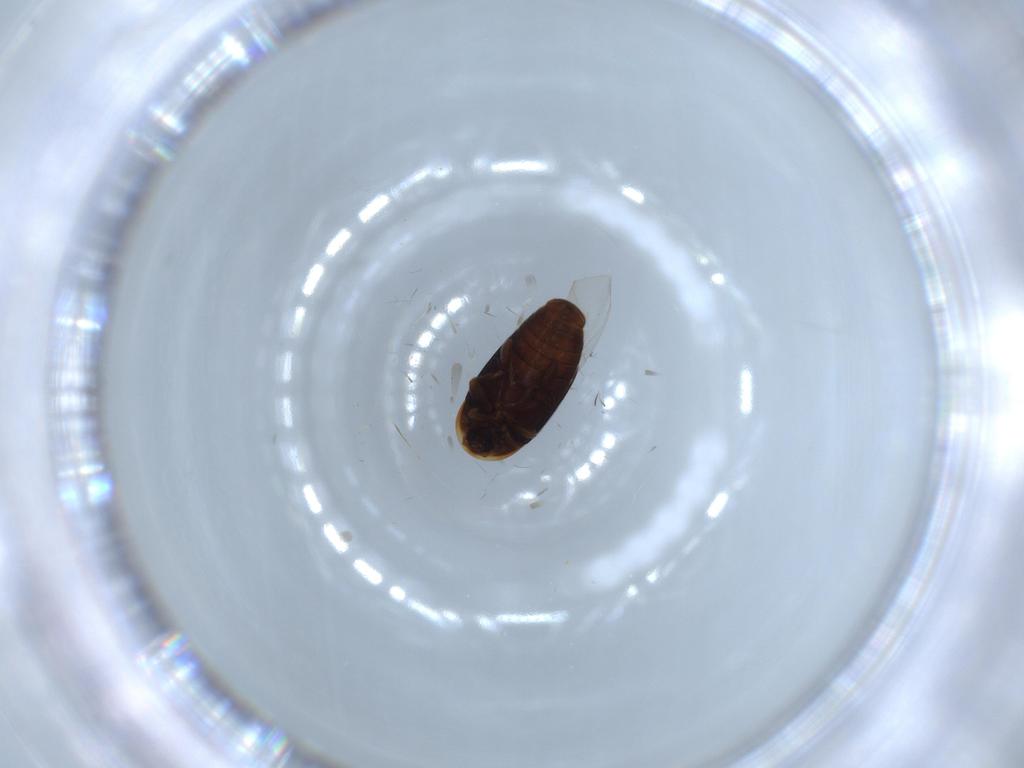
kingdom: Animalia
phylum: Arthropoda
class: Insecta
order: Coleoptera
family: Corylophidae
